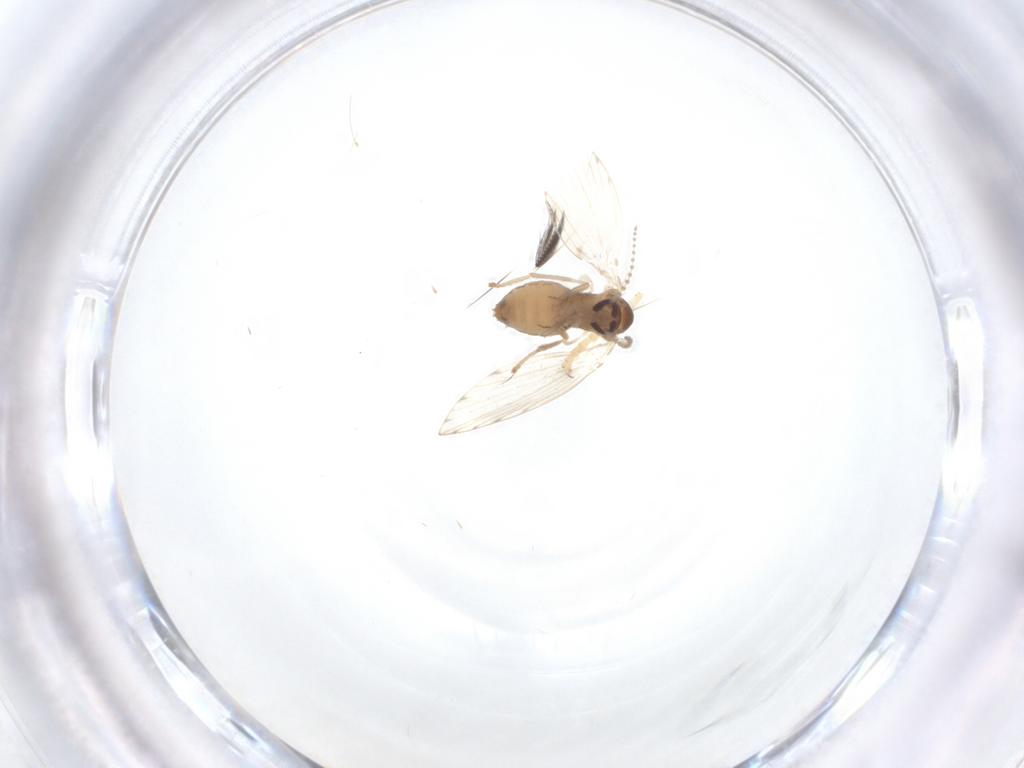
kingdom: Animalia
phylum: Arthropoda
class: Insecta
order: Diptera
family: Psychodidae
